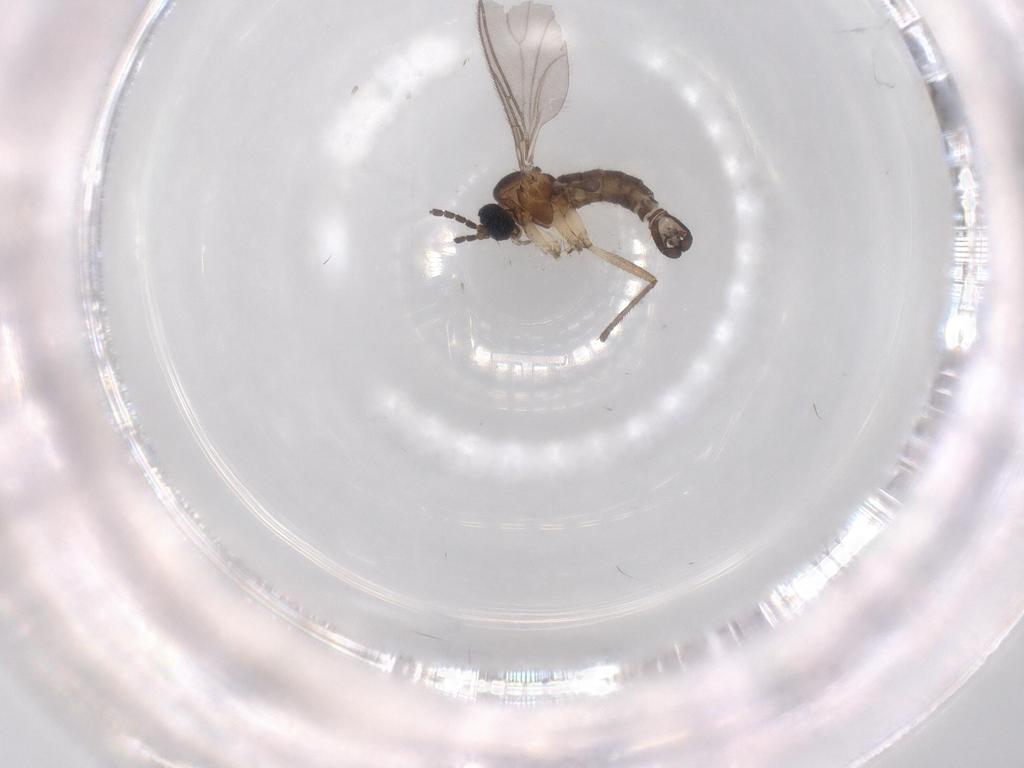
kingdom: Animalia
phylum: Arthropoda
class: Insecta
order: Diptera
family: Sciaridae
